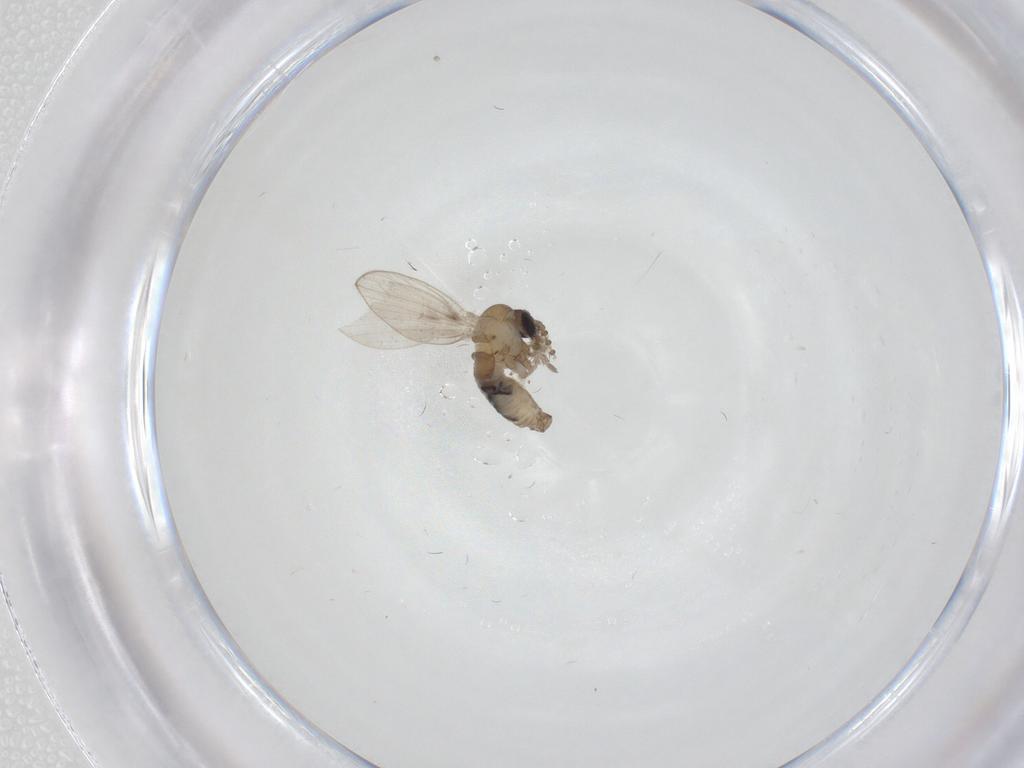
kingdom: Animalia
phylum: Arthropoda
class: Insecta
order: Diptera
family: Psychodidae
